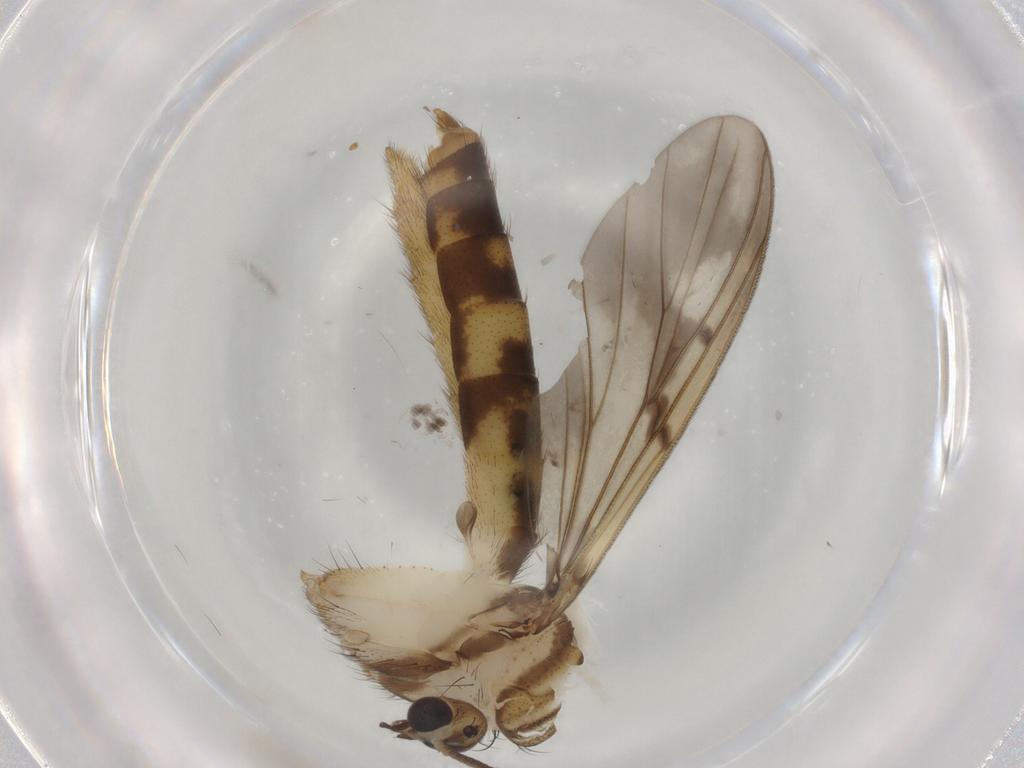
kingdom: Animalia
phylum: Arthropoda
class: Insecta
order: Diptera
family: Mycetophilidae
